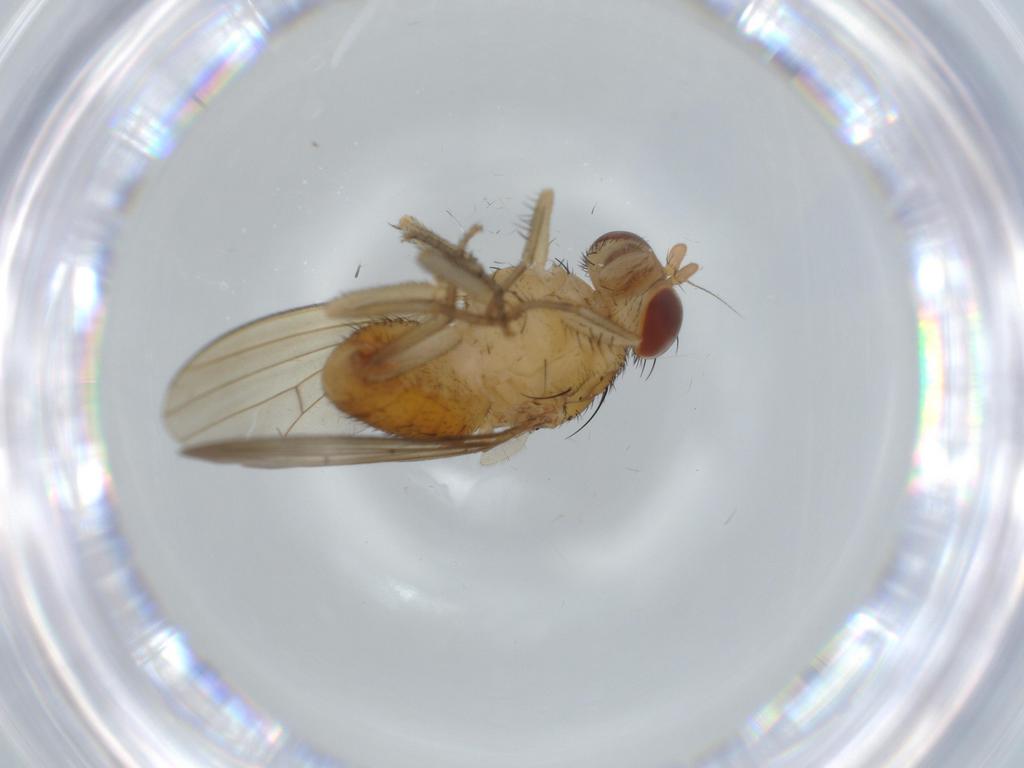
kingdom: Animalia
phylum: Arthropoda
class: Insecta
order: Diptera
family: Lauxaniidae
